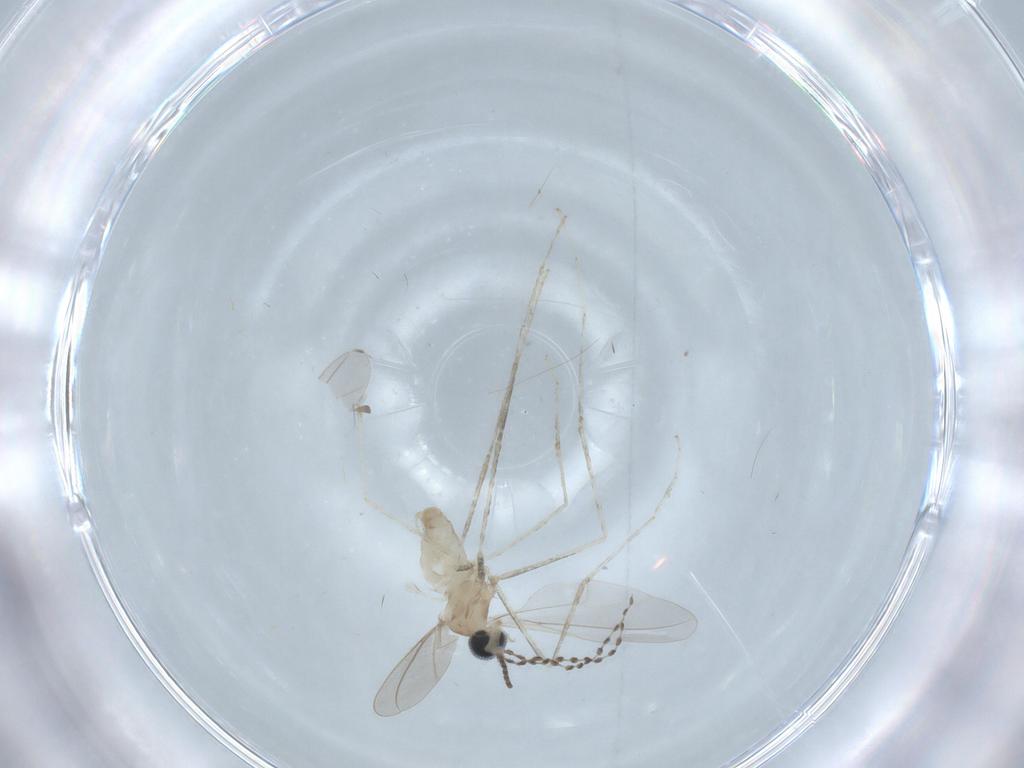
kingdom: Animalia
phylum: Arthropoda
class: Insecta
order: Diptera
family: Cecidomyiidae
